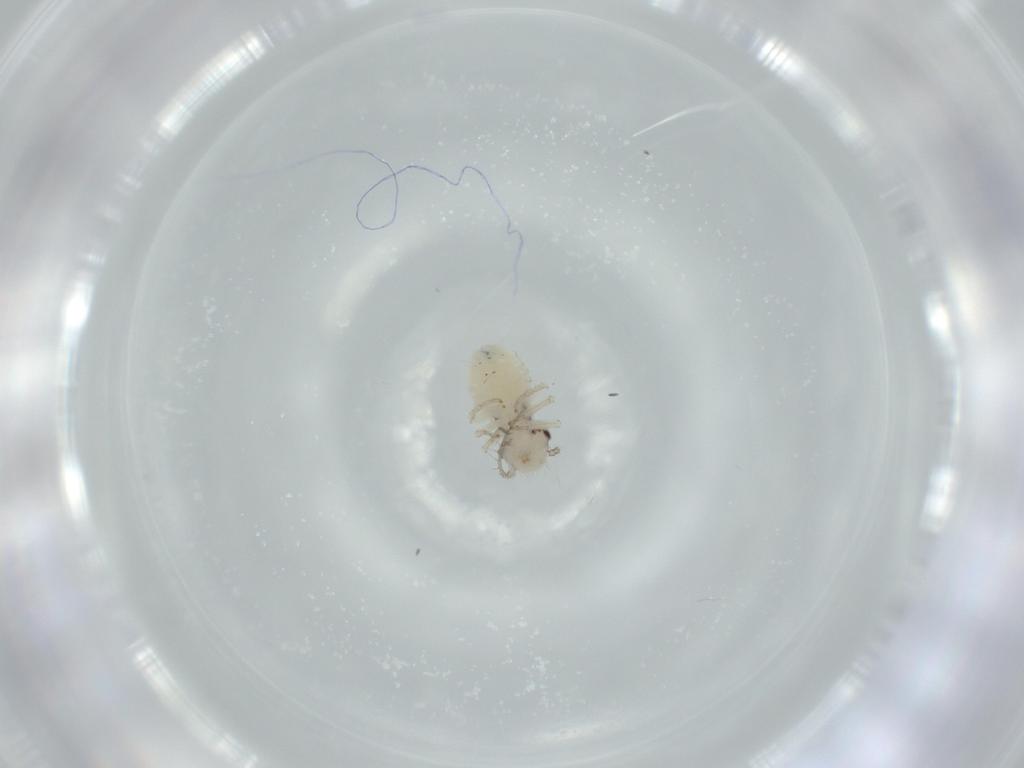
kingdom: Animalia
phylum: Arthropoda
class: Insecta
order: Psocodea
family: Pseudocaeciliidae
